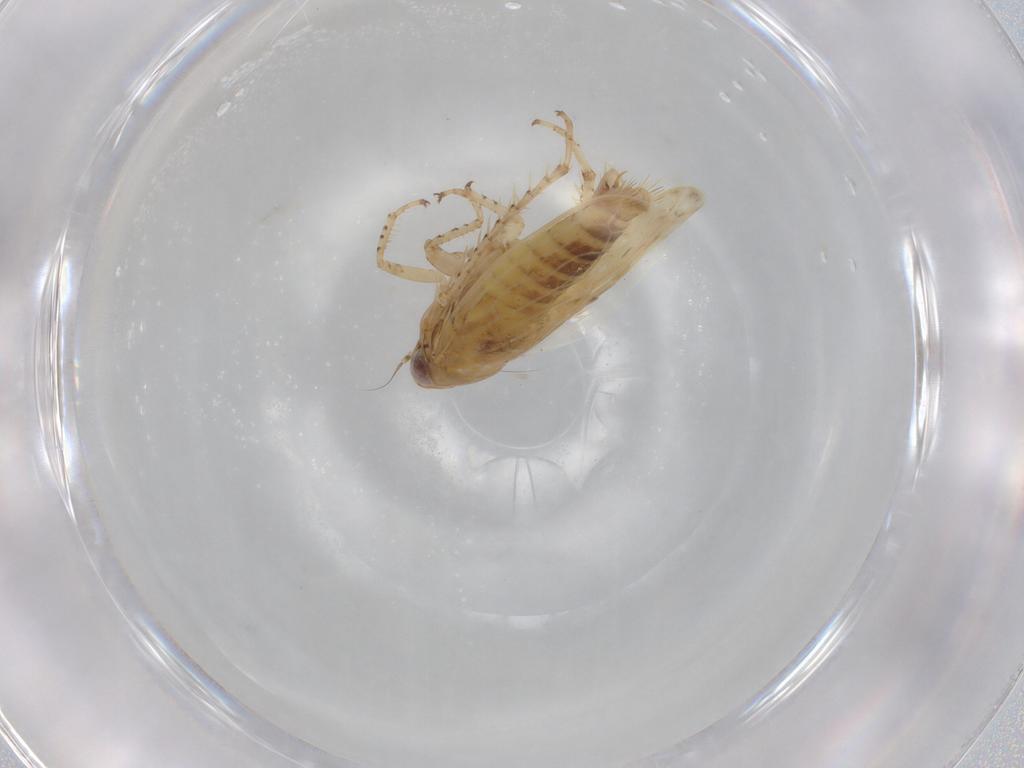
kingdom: Animalia
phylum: Arthropoda
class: Insecta
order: Hemiptera
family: Cicadellidae
